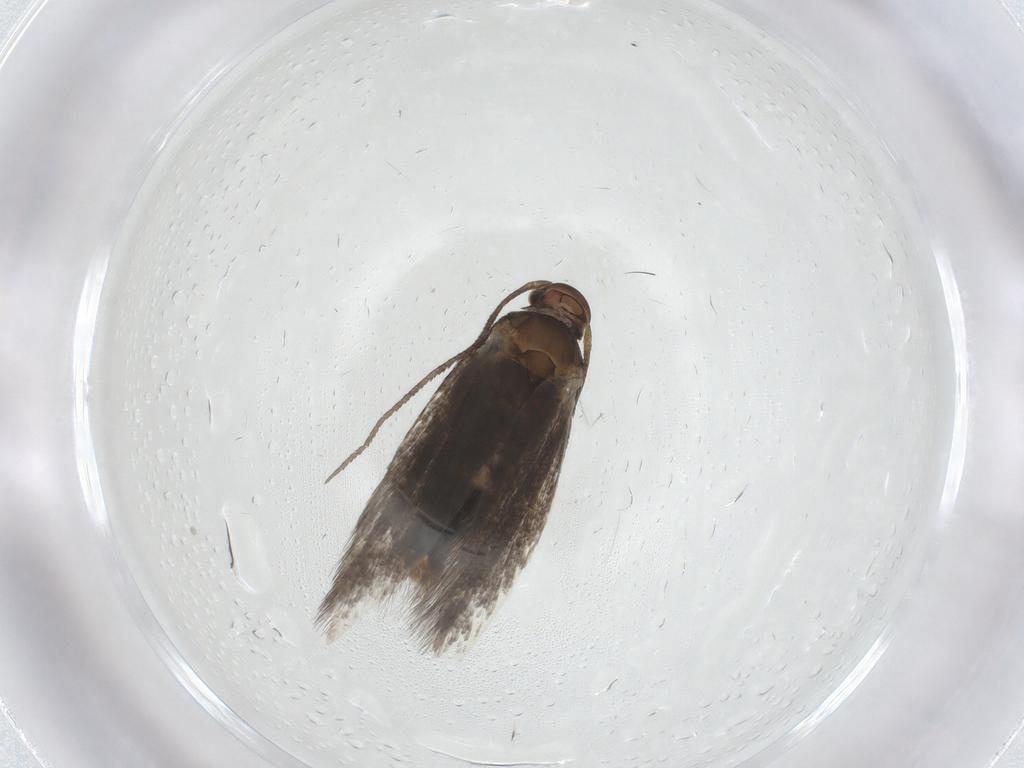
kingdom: Animalia
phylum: Arthropoda
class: Insecta
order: Lepidoptera
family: Elachistidae
